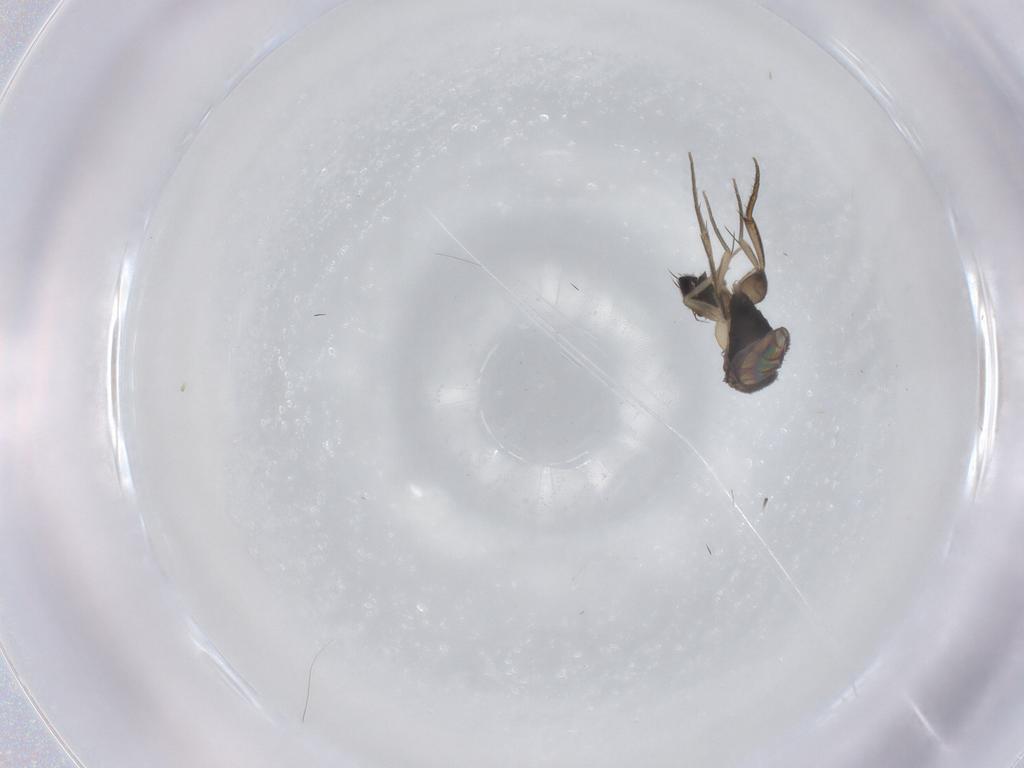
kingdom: Animalia
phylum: Arthropoda
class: Insecta
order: Diptera
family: Phoridae
